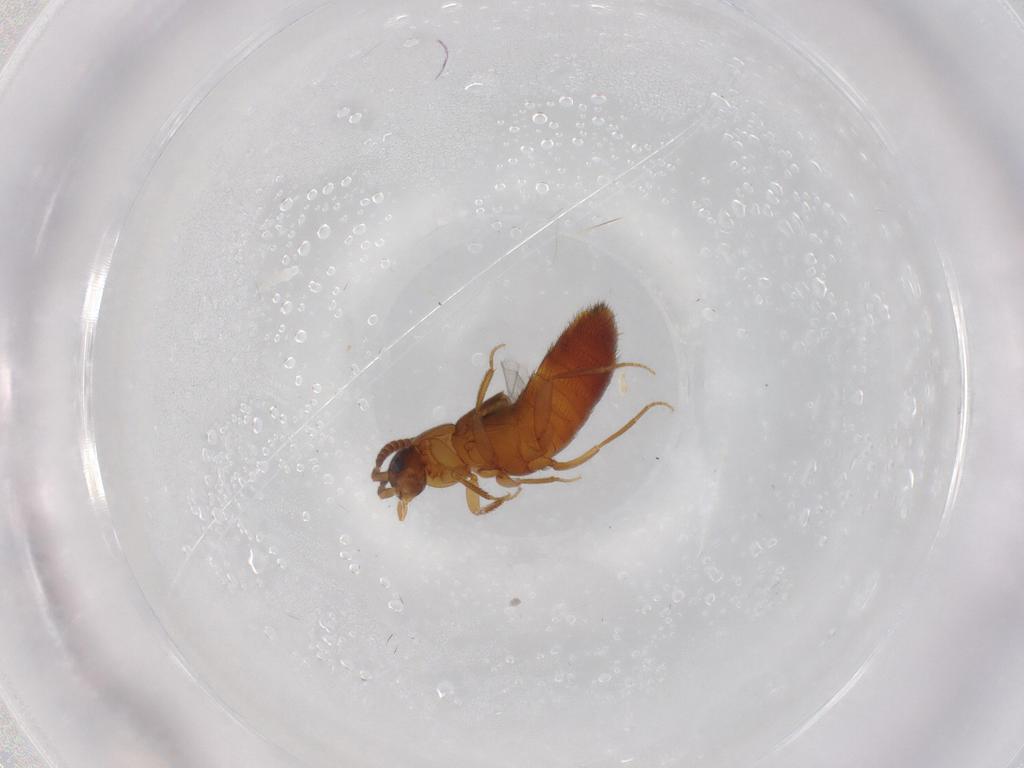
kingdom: Animalia
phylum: Arthropoda
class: Insecta
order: Coleoptera
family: Staphylinidae
